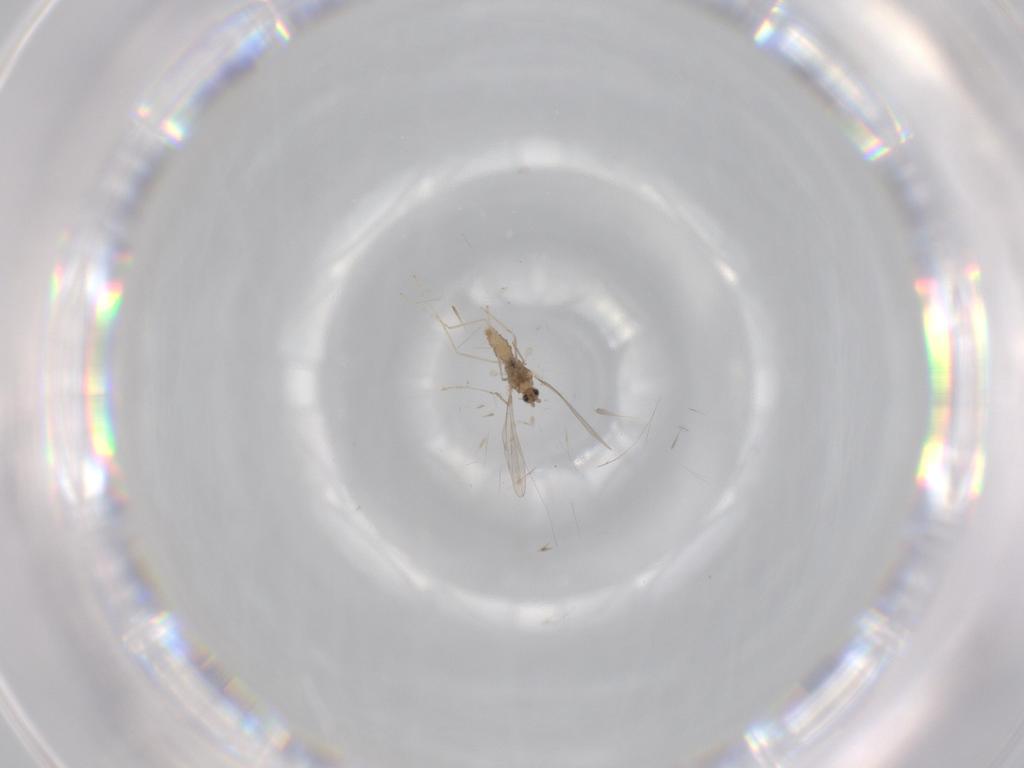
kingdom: Animalia
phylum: Arthropoda
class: Insecta
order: Diptera
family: Cecidomyiidae
